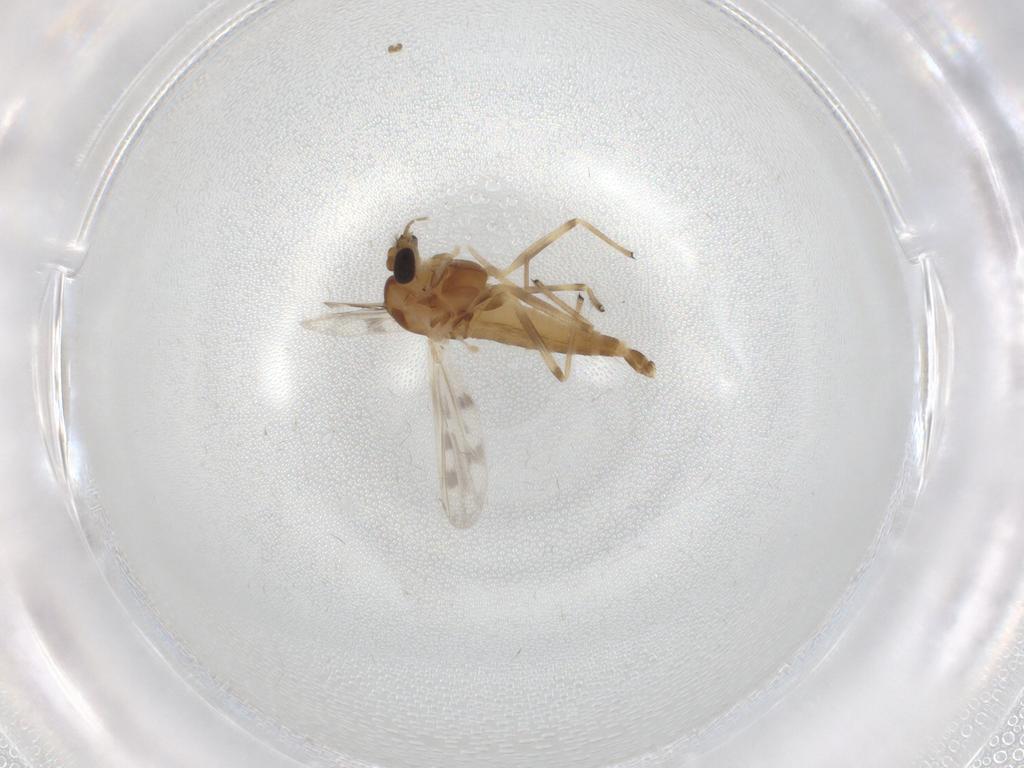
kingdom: Animalia
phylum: Arthropoda
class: Insecta
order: Diptera
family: Chironomidae
